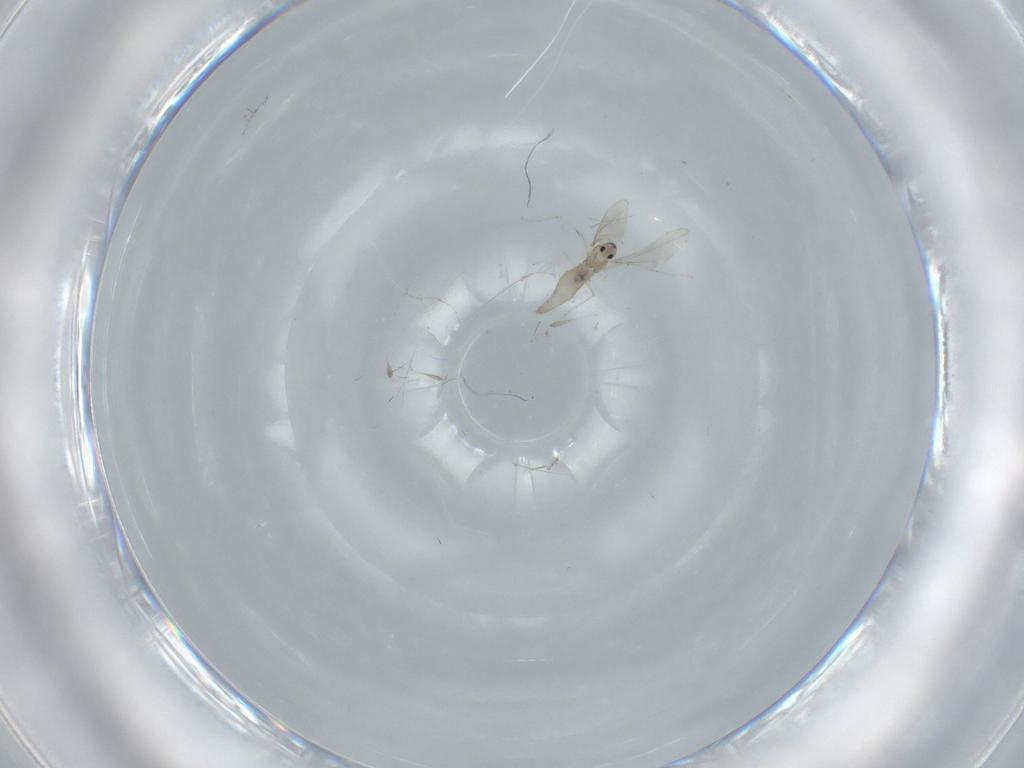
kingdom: Animalia
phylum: Arthropoda
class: Insecta
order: Diptera
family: Cecidomyiidae
